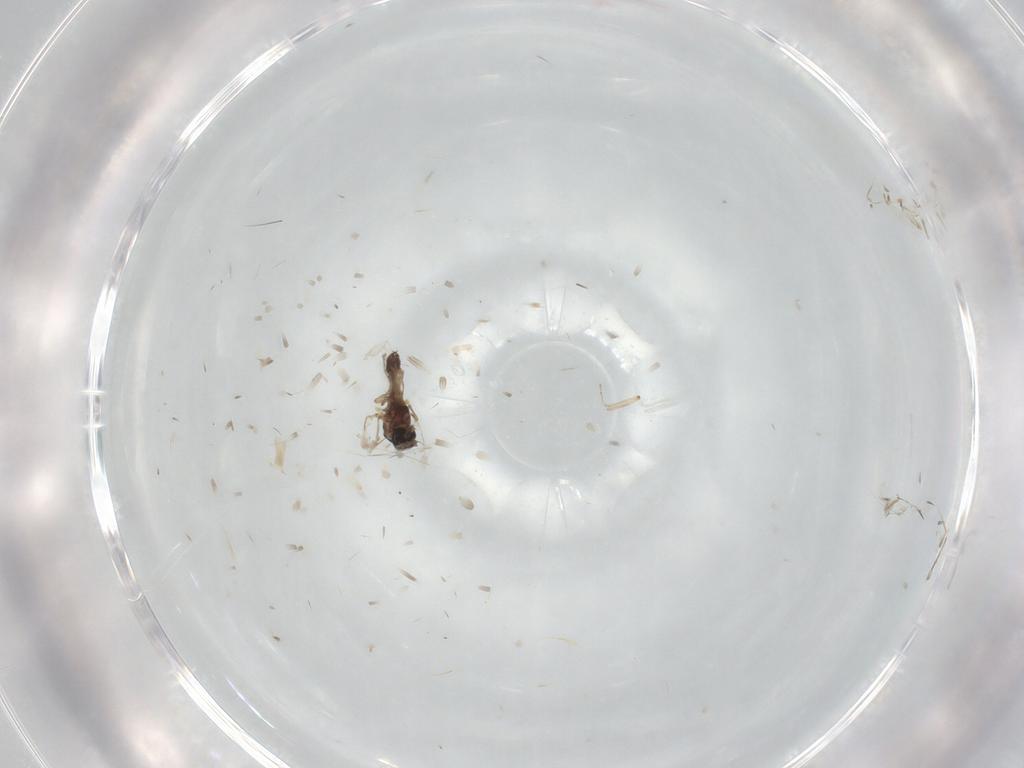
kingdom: Animalia
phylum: Arthropoda
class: Insecta
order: Diptera
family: Ceratopogonidae
